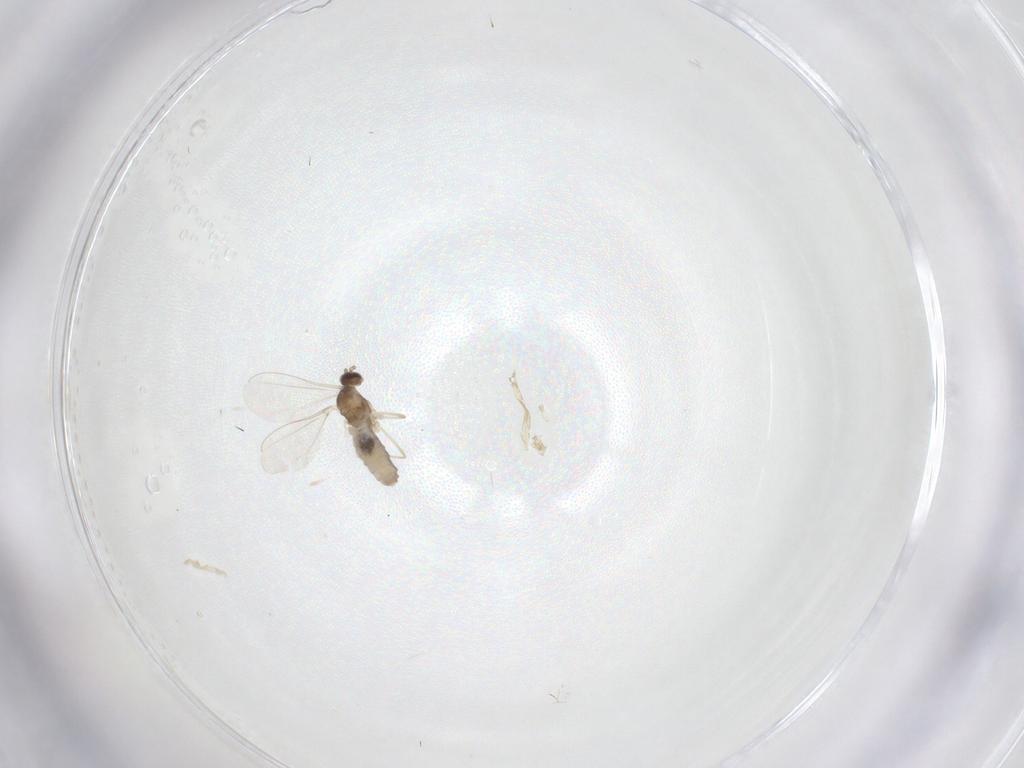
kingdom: Animalia
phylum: Arthropoda
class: Insecta
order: Diptera
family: Cecidomyiidae
